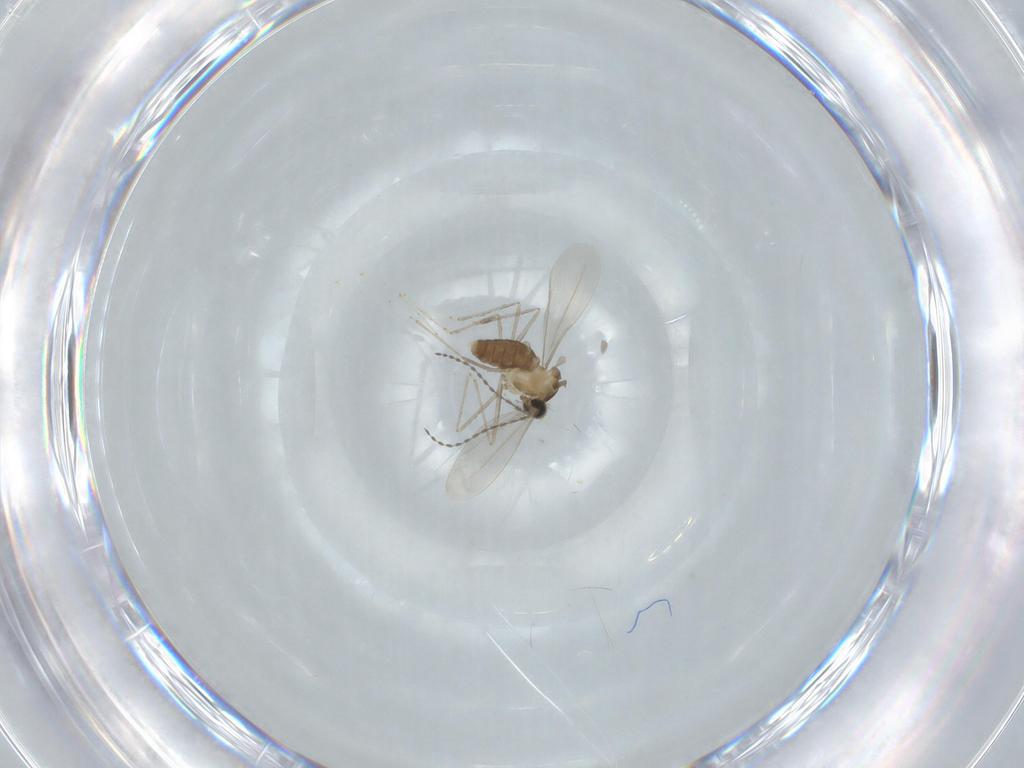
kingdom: Animalia
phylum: Arthropoda
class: Insecta
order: Diptera
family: Cecidomyiidae
